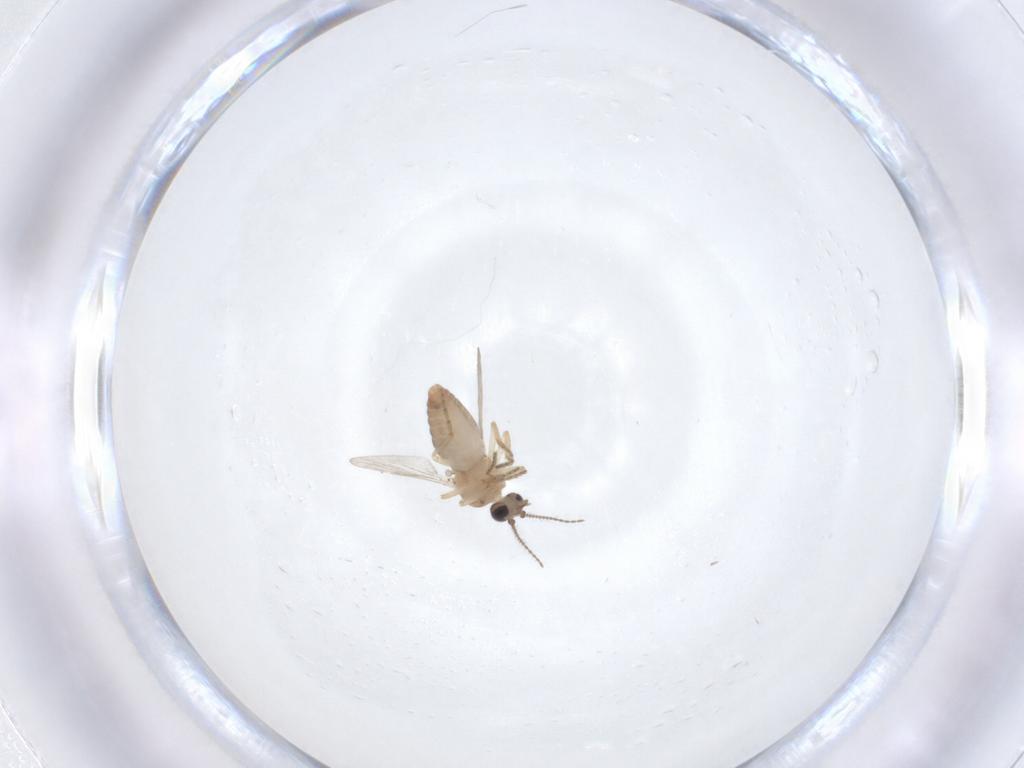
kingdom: Animalia
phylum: Arthropoda
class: Insecta
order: Diptera
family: Ceratopogonidae
